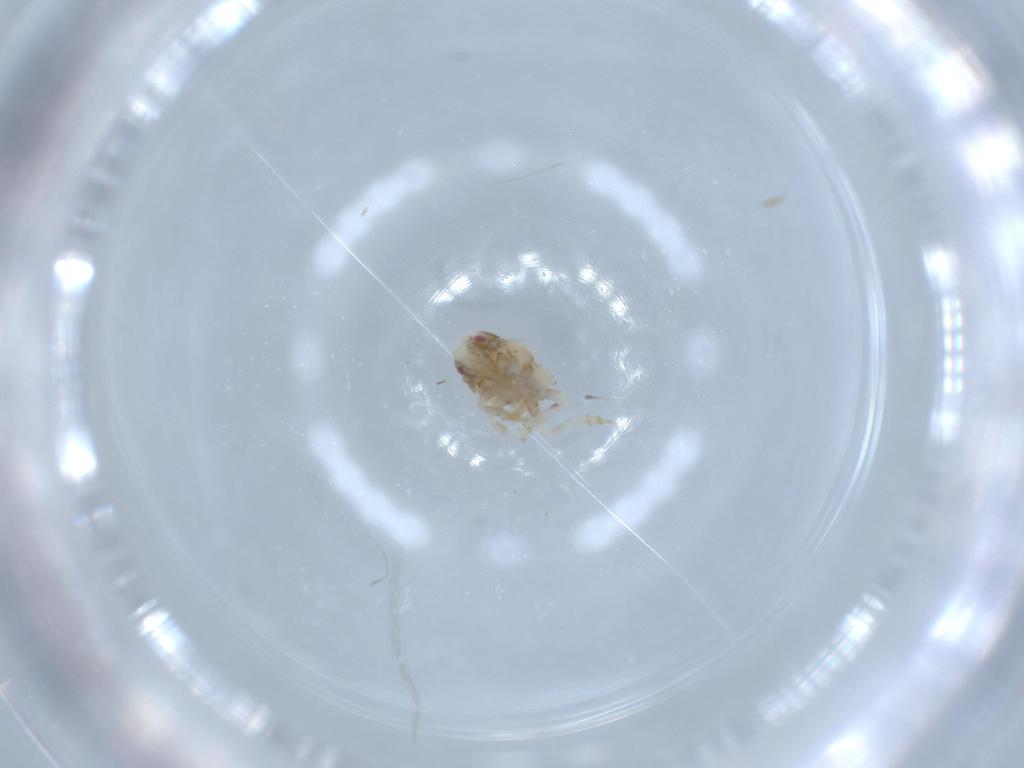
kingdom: Animalia
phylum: Arthropoda
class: Insecta
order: Hemiptera
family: Acanaloniidae
